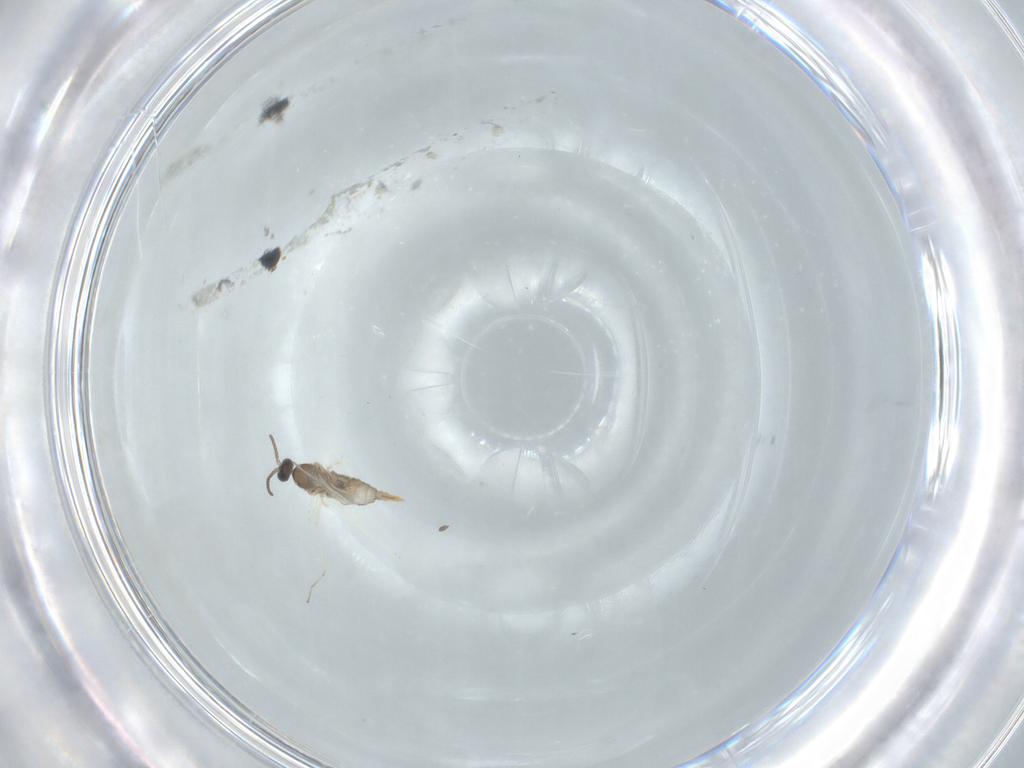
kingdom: Animalia
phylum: Arthropoda
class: Insecta
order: Diptera
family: Cecidomyiidae
